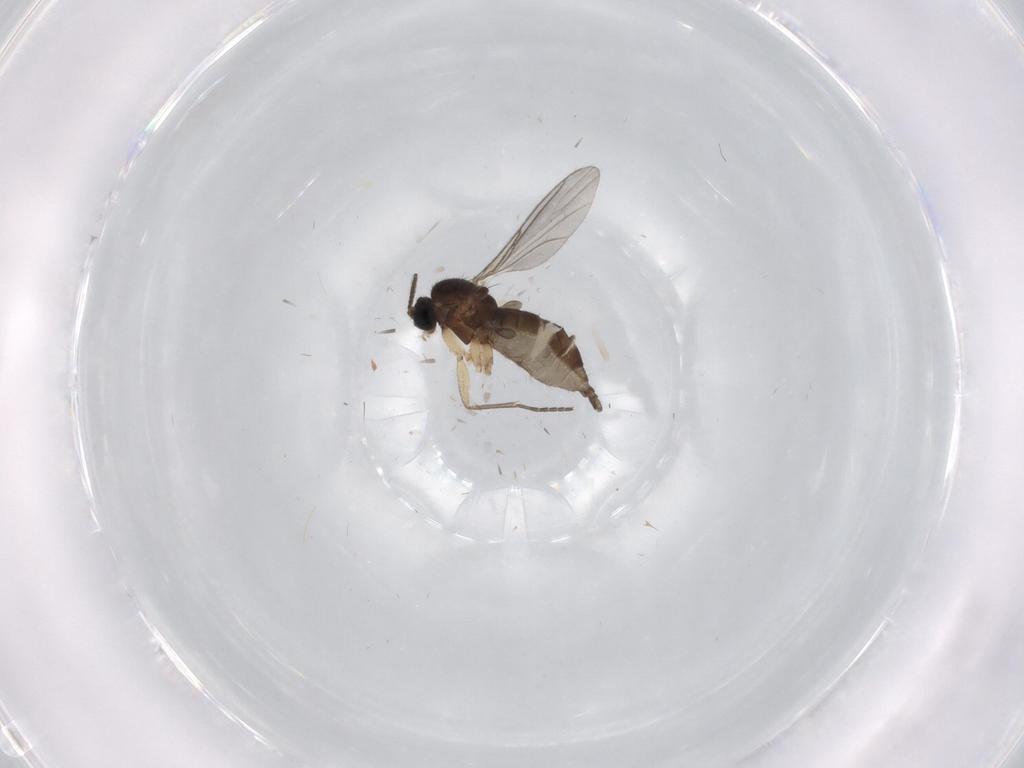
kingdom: Animalia
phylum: Arthropoda
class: Insecta
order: Diptera
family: Sciaridae
